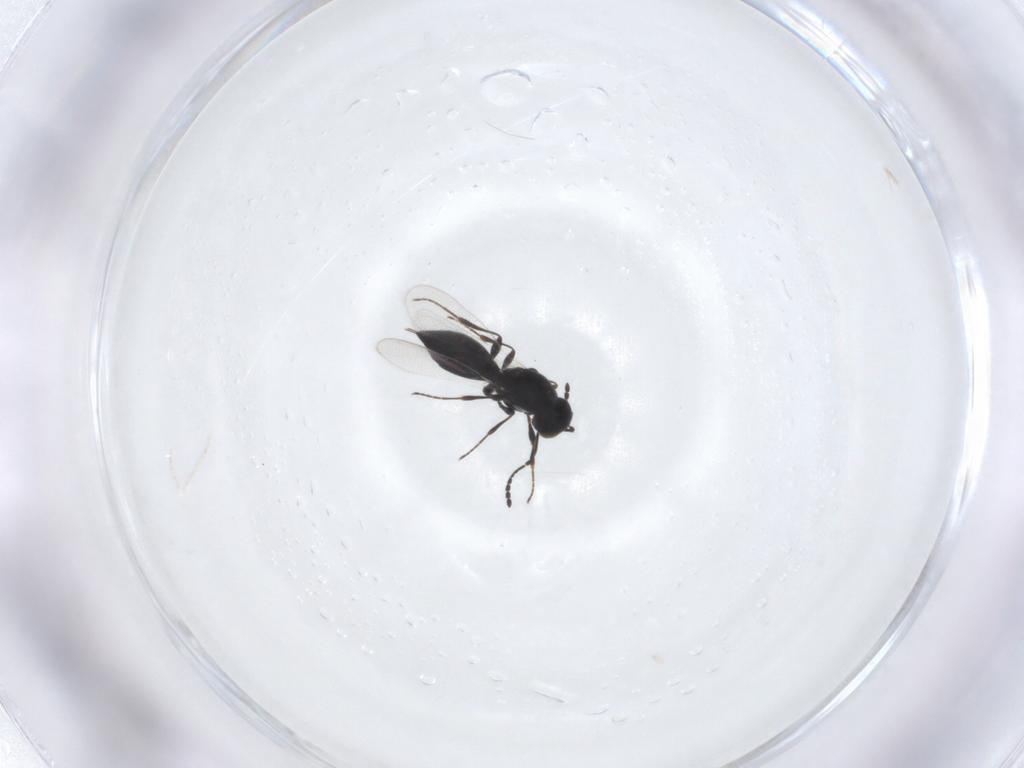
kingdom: Animalia
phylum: Arthropoda
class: Insecta
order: Diptera
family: Mythicomyiidae
